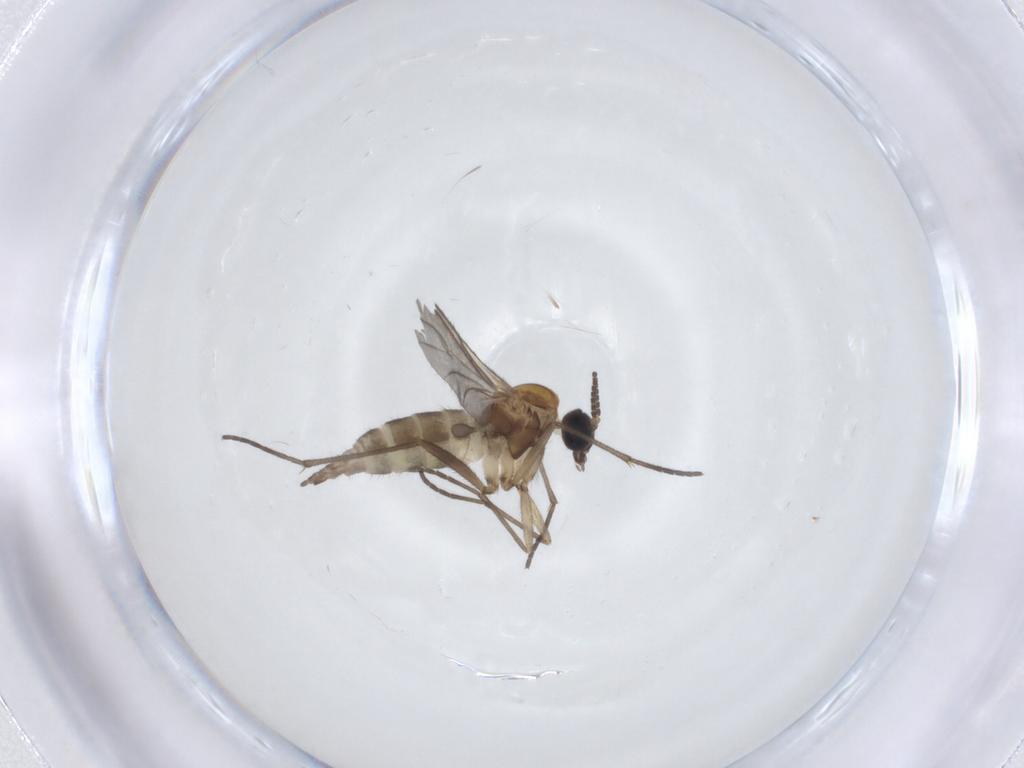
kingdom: Animalia
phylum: Arthropoda
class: Insecta
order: Diptera
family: Sciaridae
